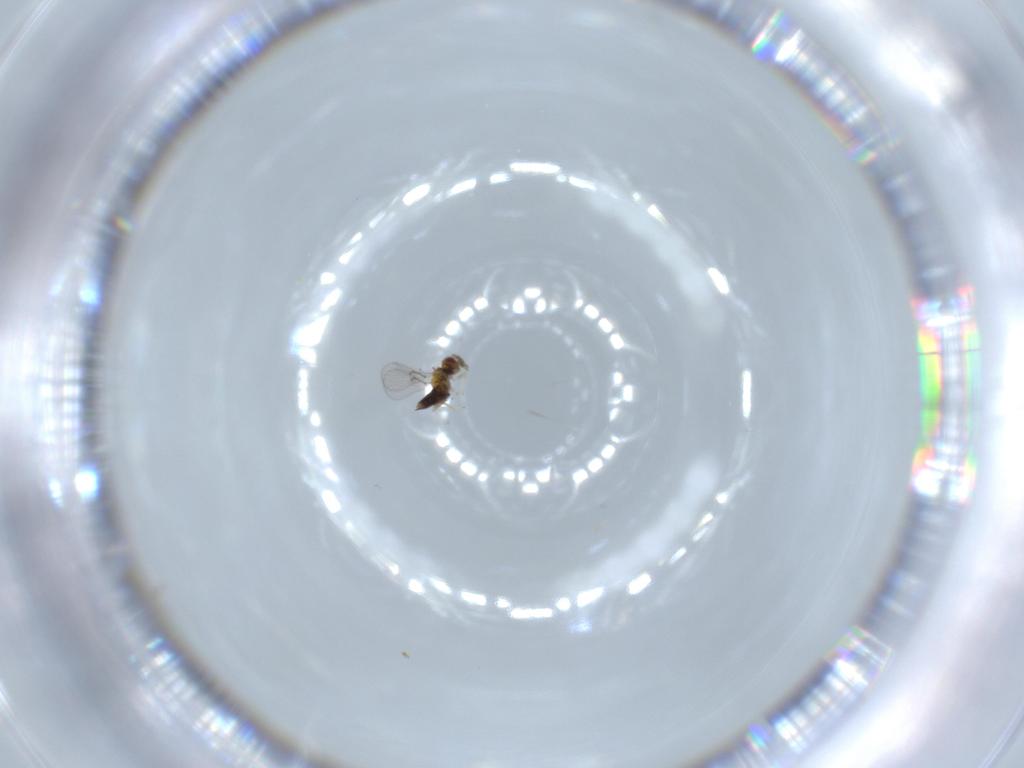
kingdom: Animalia
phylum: Arthropoda
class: Insecta
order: Hymenoptera
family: Trichogrammatidae
